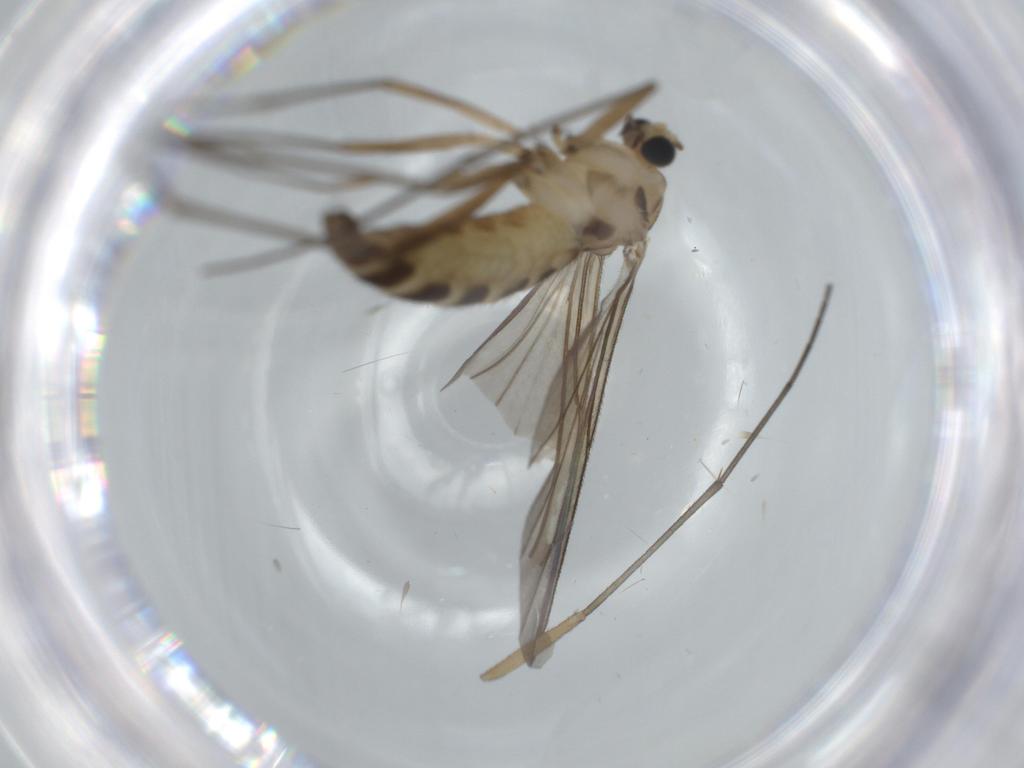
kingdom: Animalia
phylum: Arthropoda
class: Insecta
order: Diptera
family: Sciaridae
